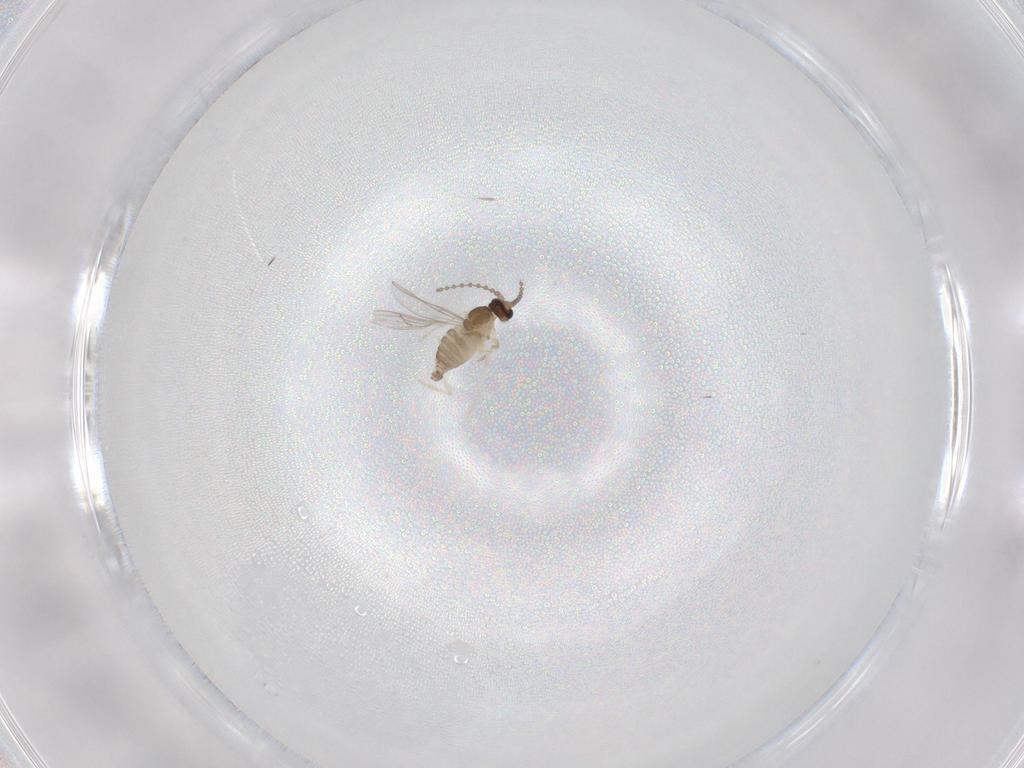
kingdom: Animalia
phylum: Arthropoda
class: Insecta
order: Diptera
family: Cecidomyiidae
